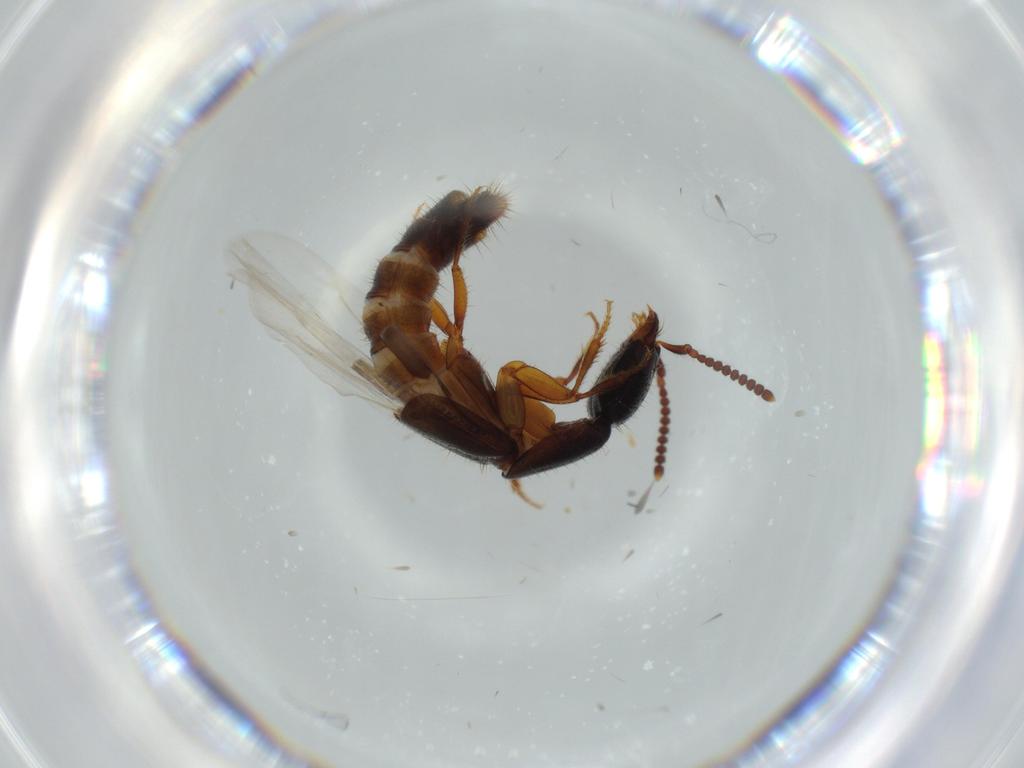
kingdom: Animalia
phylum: Arthropoda
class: Insecta
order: Coleoptera
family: Staphylinidae
